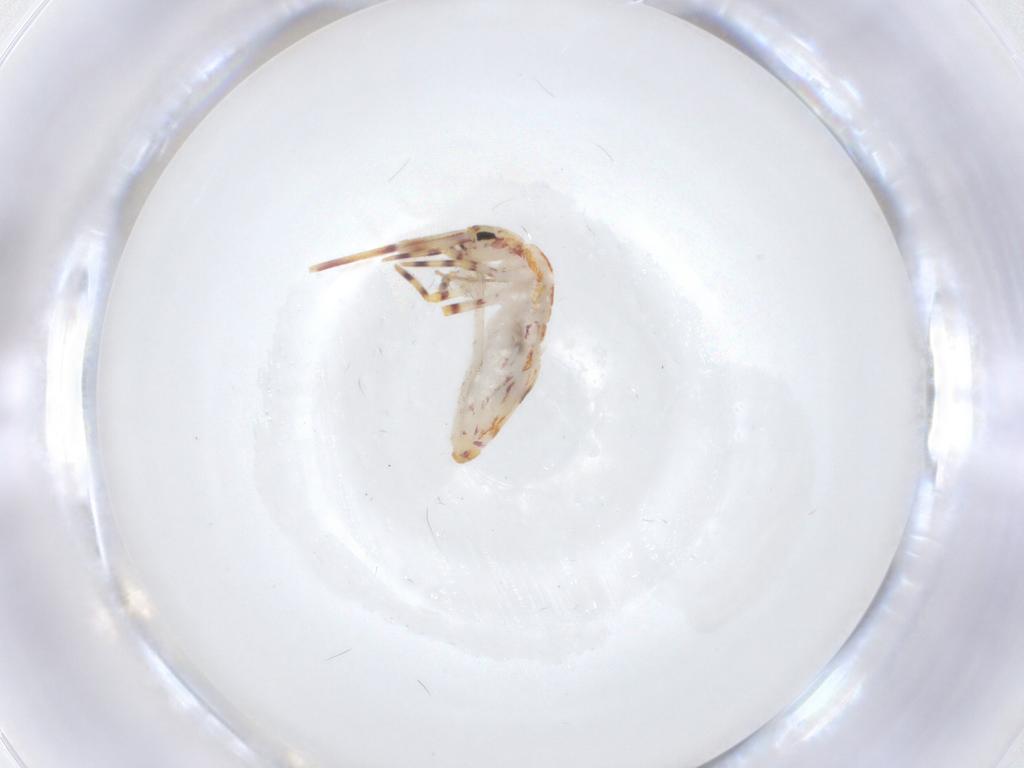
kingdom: Animalia
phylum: Arthropoda
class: Collembola
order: Entomobryomorpha
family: Entomobryidae
